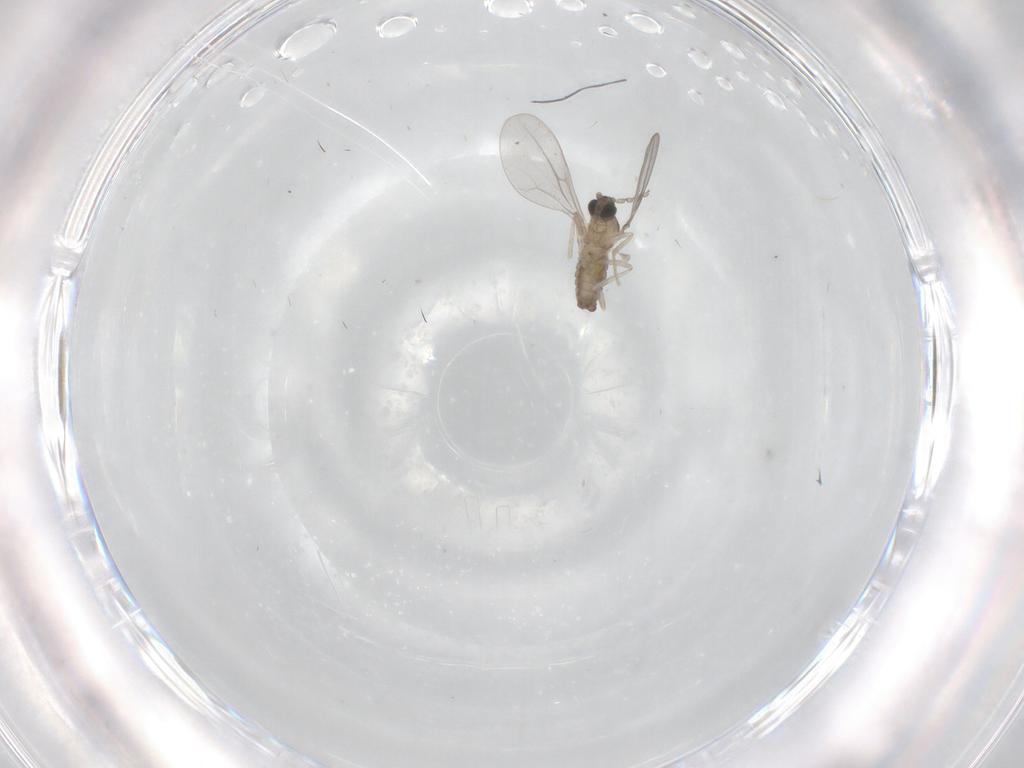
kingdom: Animalia
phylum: Arthropoda
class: Insecta
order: Diptera
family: Cecidomyiidae
